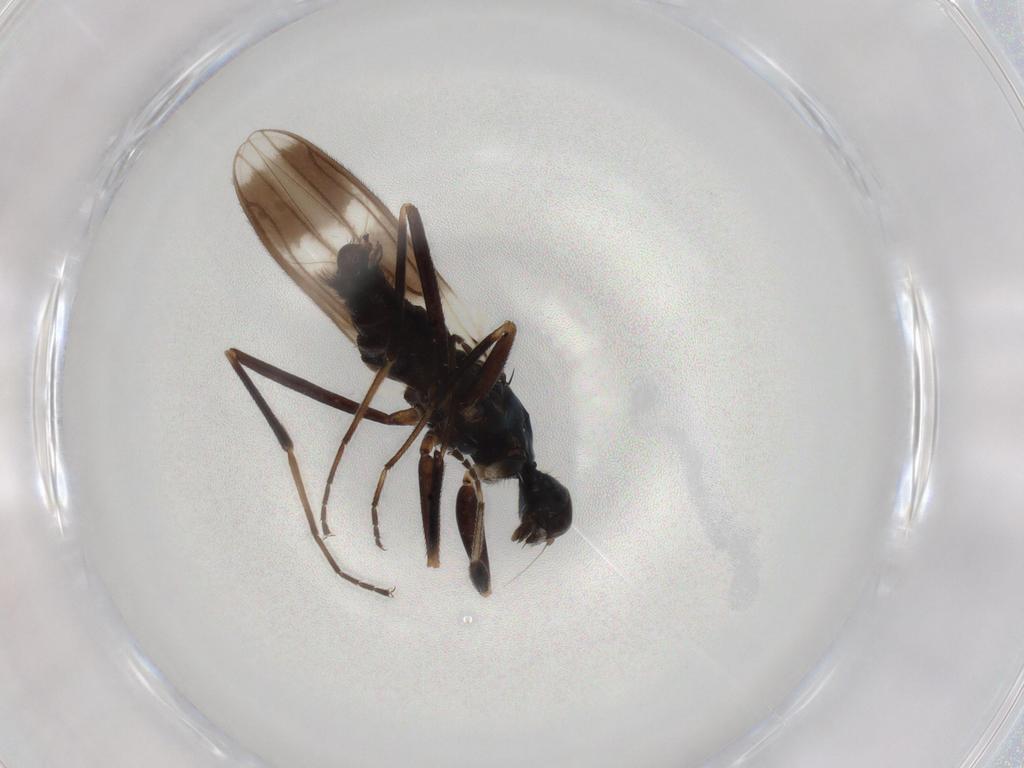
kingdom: Animalia
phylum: Arthropoda
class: Insecta
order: Diptera
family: Hybotidae
